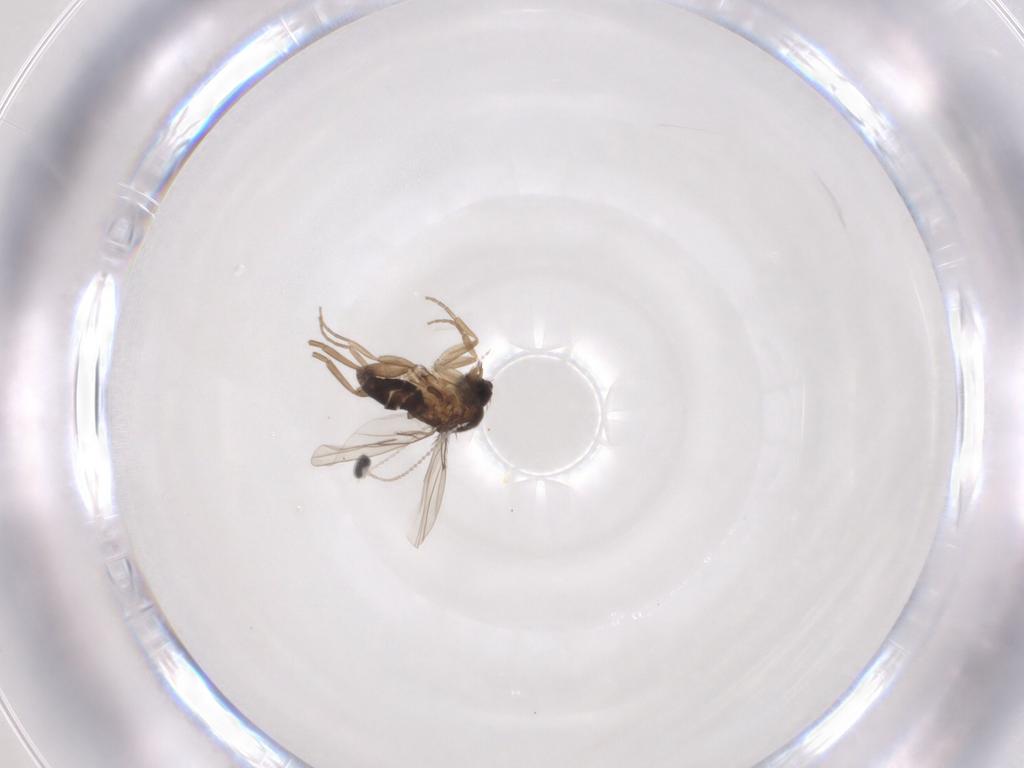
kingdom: Animalia
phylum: Arthropoda
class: Insecta
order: Diptera
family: Phoridae
